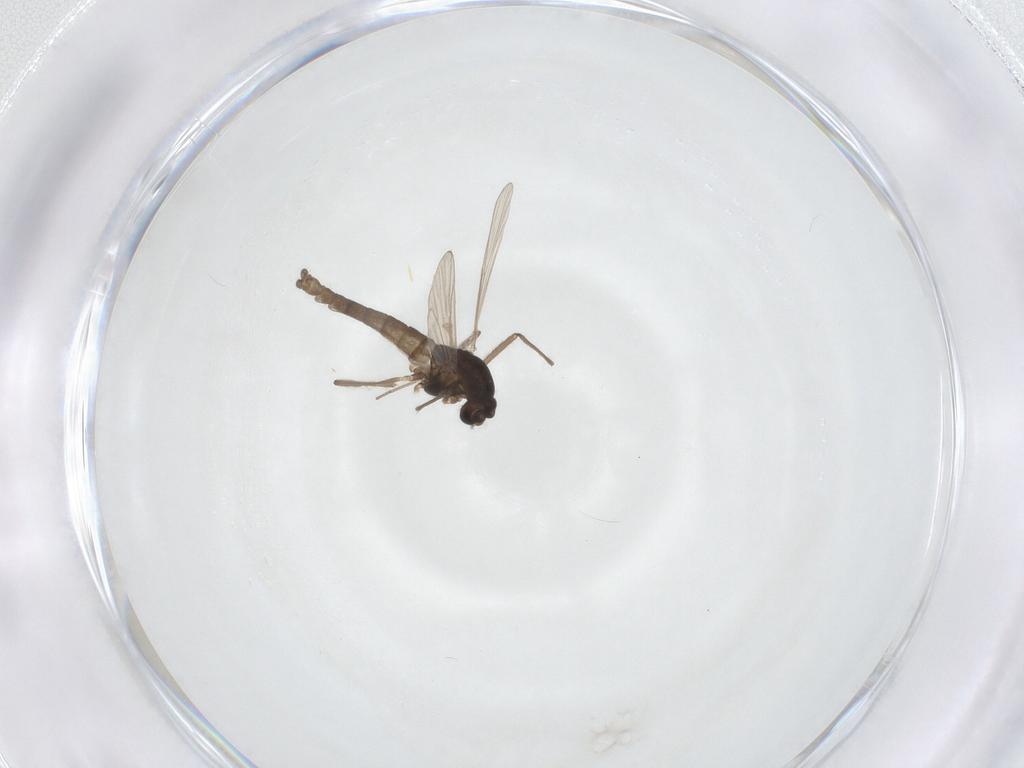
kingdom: Animalia
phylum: Arthropoda
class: Insecta
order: Diptera
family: Chironomidae
